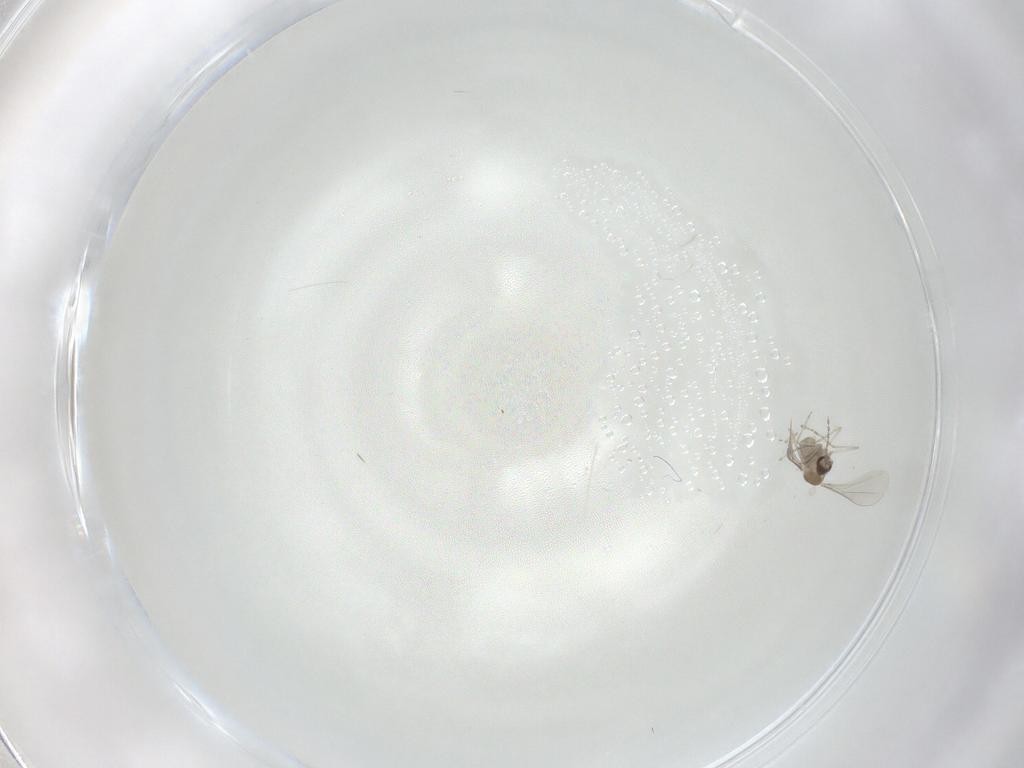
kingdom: Animalia
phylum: Arthropoda
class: Insecta
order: Diptera
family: Cecidomyiidae
